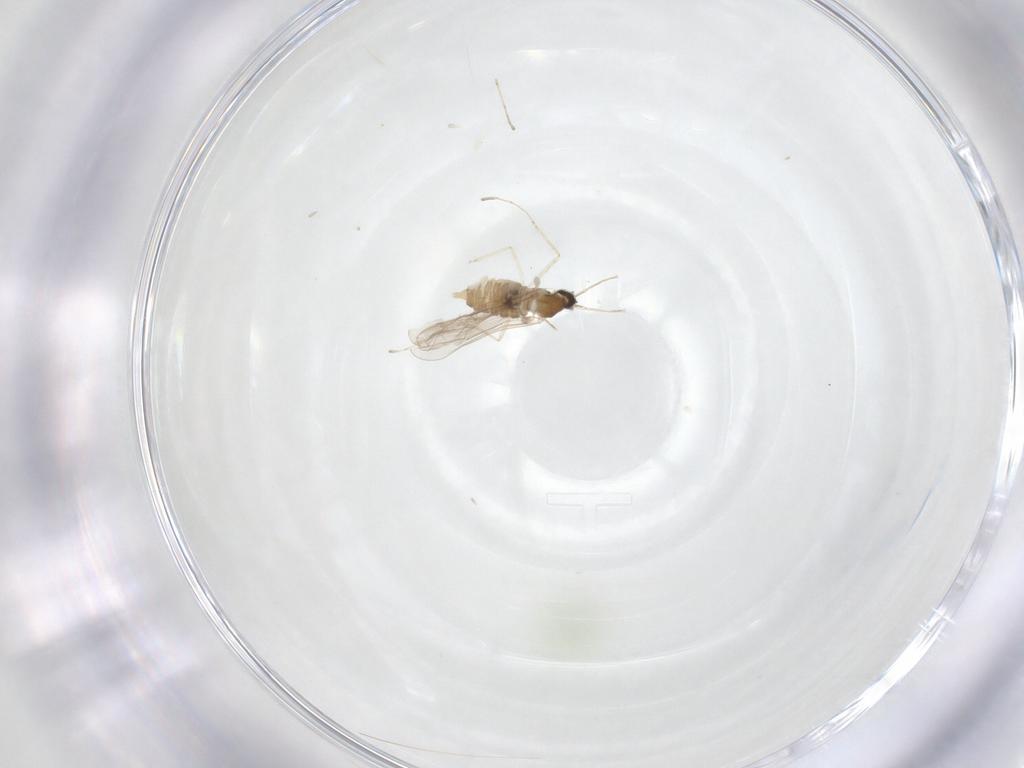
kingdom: Animalia
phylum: Arthropoda
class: Insecta
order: Diptera
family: Cecidomyiidae
